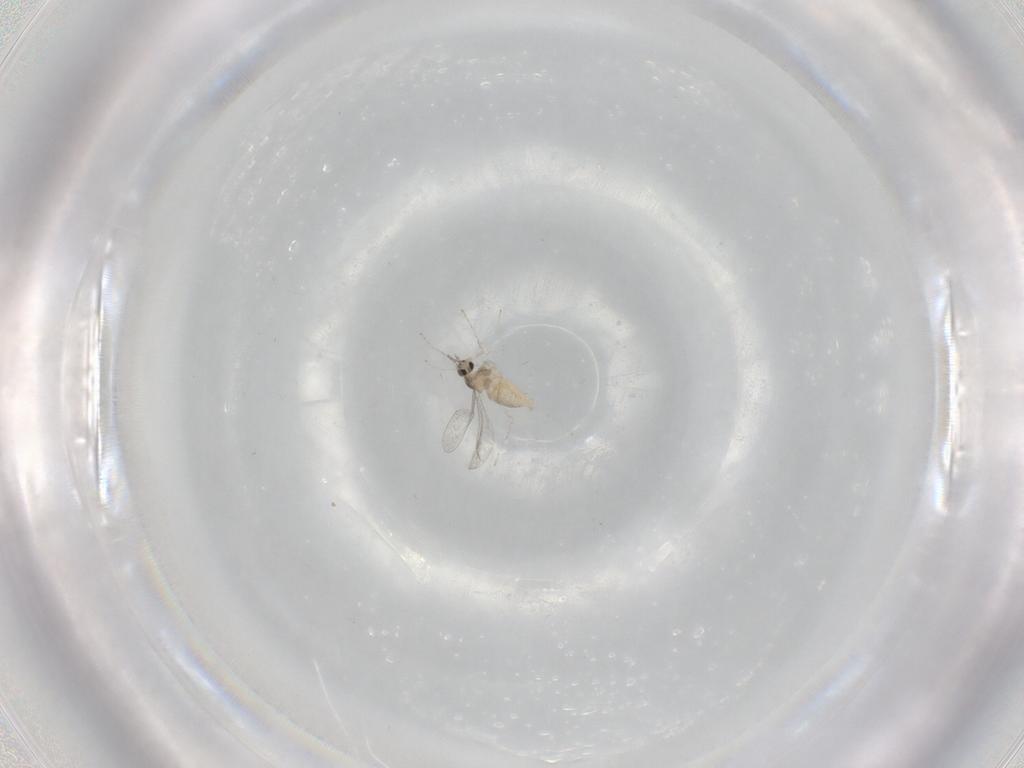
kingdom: Animalia
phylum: Arthropoda
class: Insecta
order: Diptera
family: Cecidomyiidae
